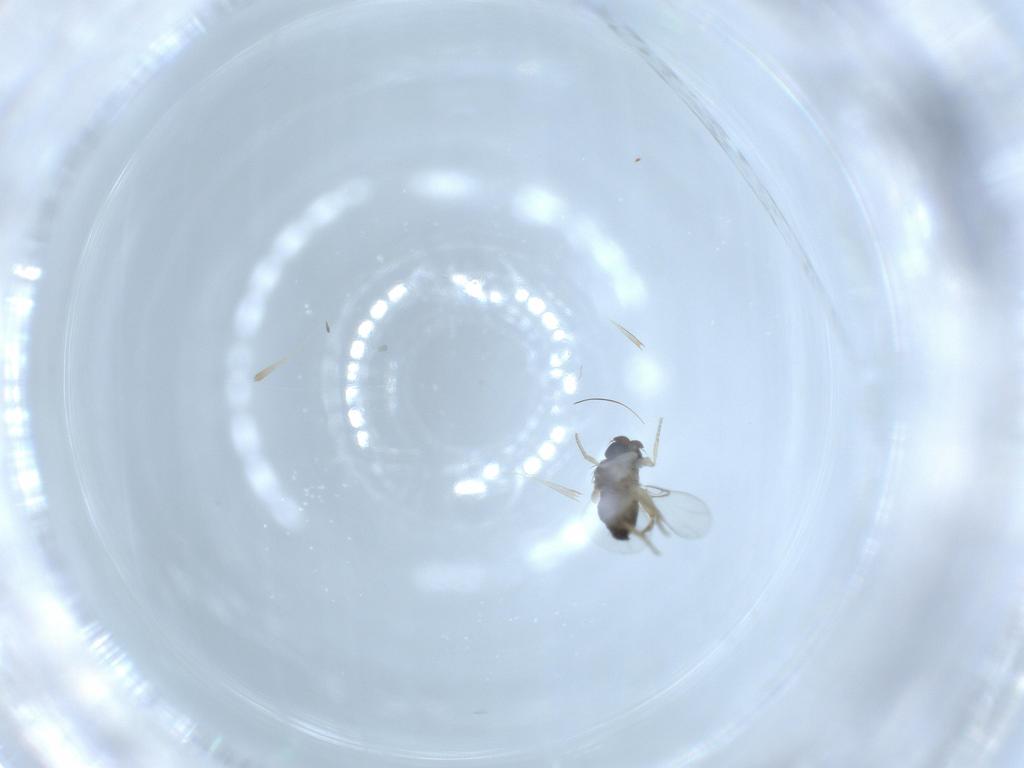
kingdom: Animalia
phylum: Arthropoda
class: Insecta
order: Diptera
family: Phoridae
